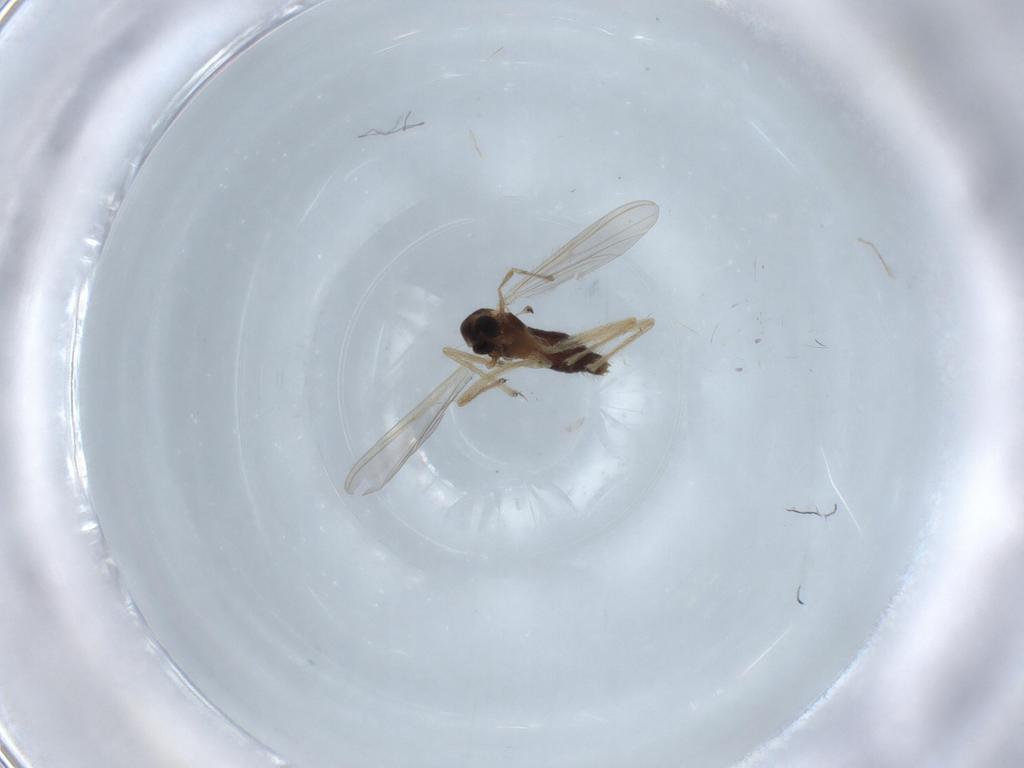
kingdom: Animalia
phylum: Arthropoda
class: Insecta
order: Diptera
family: Chironomidae
